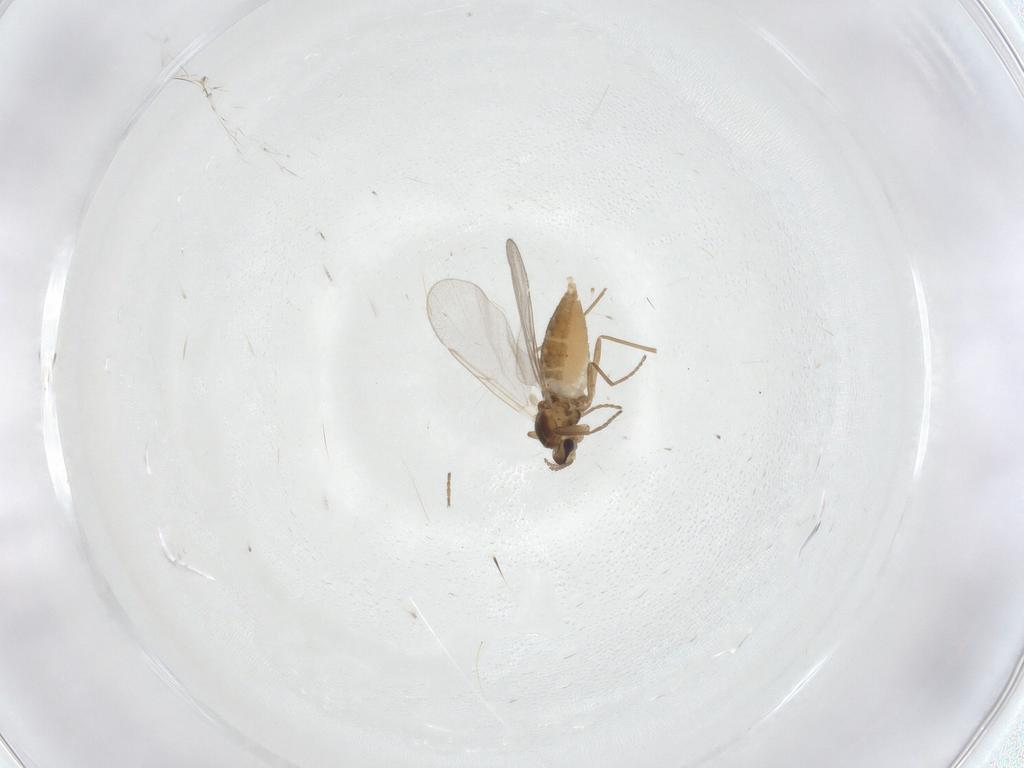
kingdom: Animalia
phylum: Arthropoda
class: Insecta
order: Diptera
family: Cecidomyiidae
